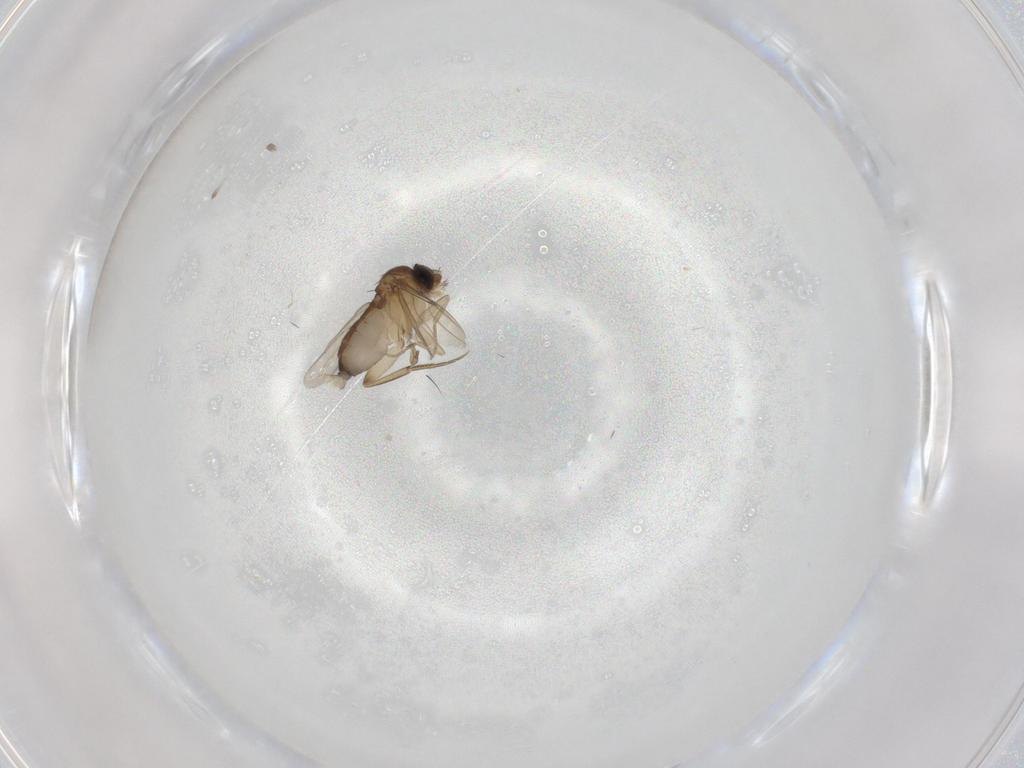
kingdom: Animalia
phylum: Arthropoda
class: Insecta
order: Diptera
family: Phoridae
